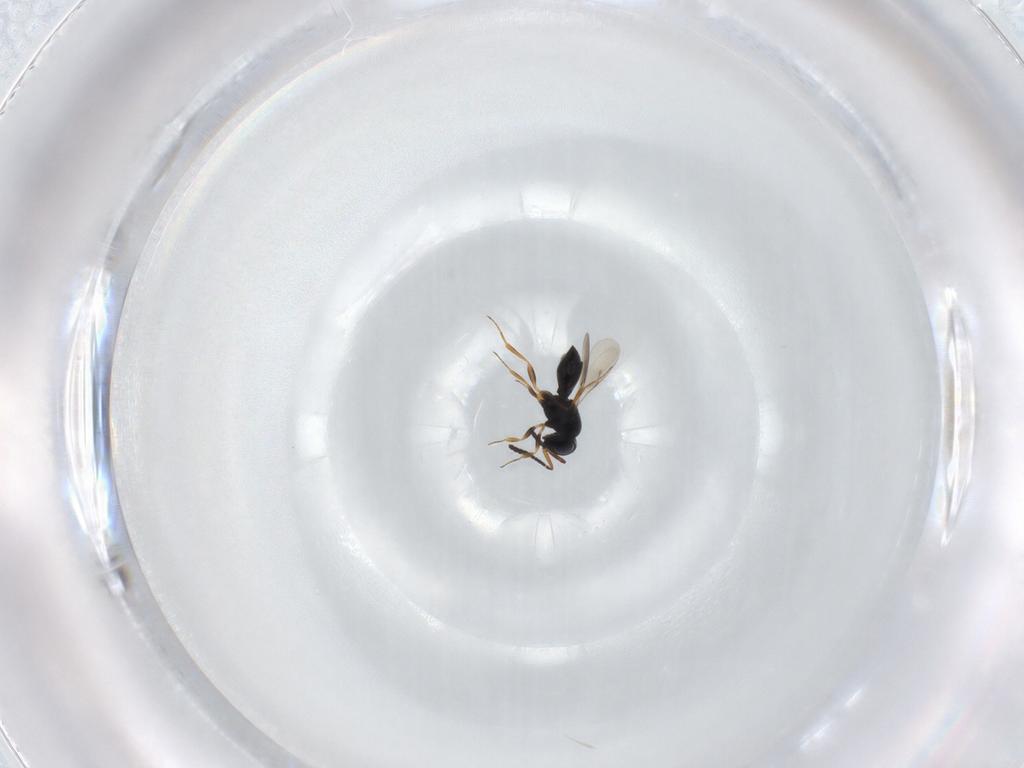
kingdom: Animalia
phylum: Arthropoda
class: Insecta
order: Hymenoptera
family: Scelionidae
